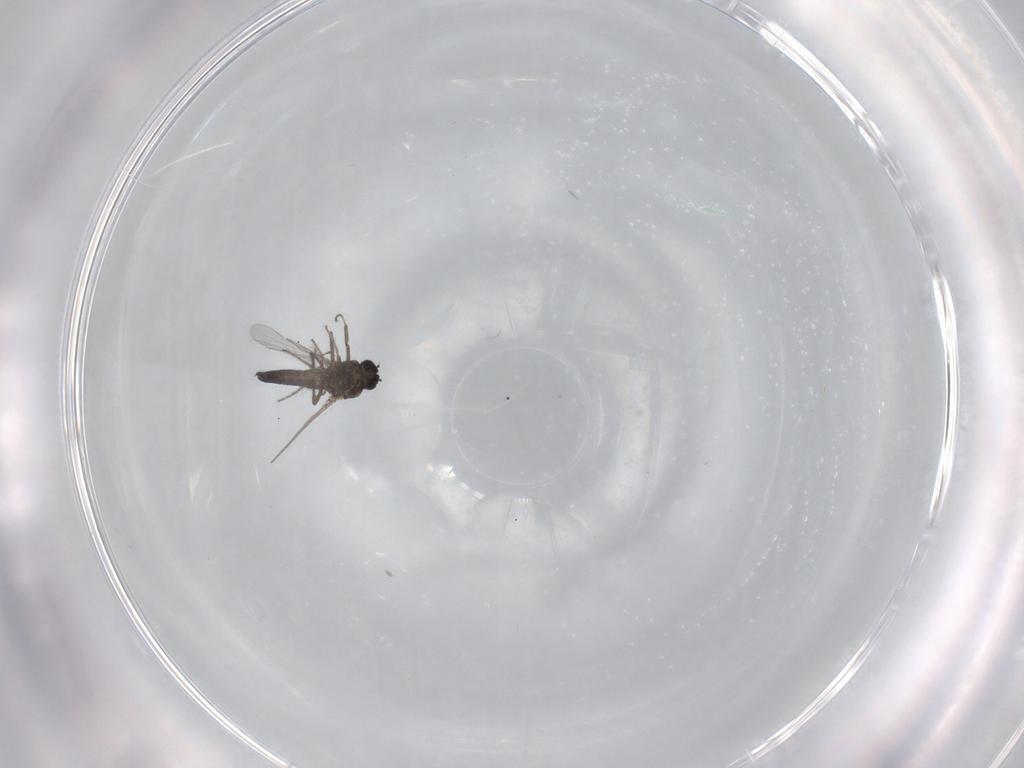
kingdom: Animalia
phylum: Arthropoda
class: Insecta
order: Diptera
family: Ceratopogonidae
